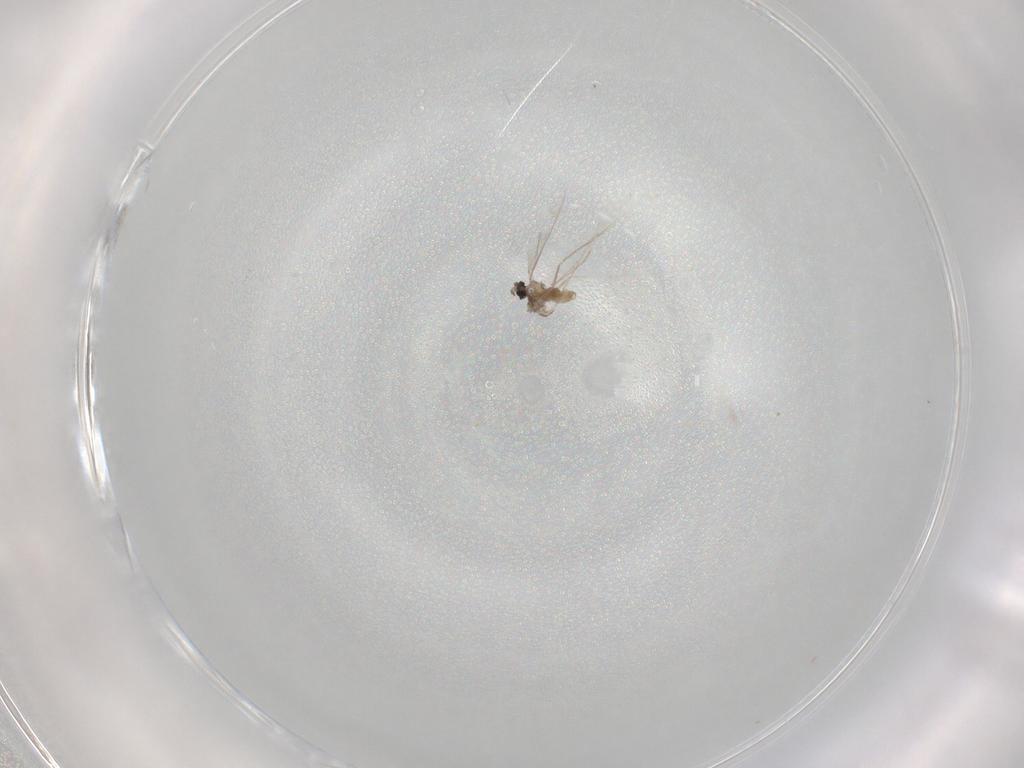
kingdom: Animalia
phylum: Arthropoda
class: Insecta
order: Diptera
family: Cecidomyiidae
